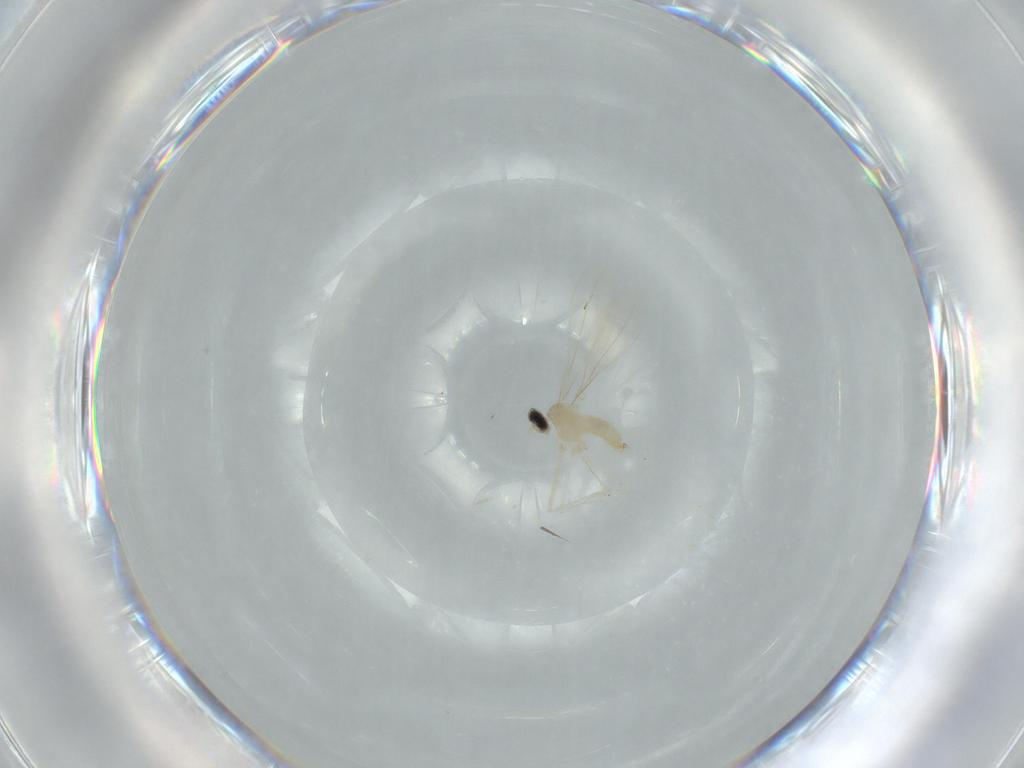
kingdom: Animalia
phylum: Arthropoda
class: Insecta
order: Diptera
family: Cecidomyiidae
